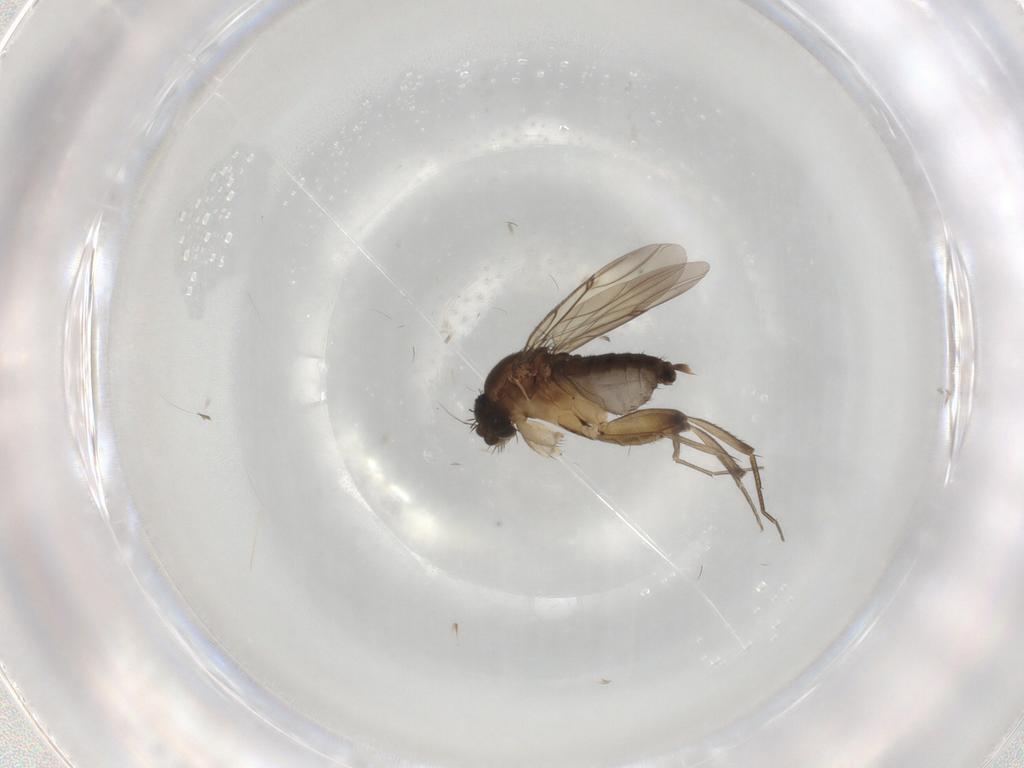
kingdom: Animalia
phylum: Arthropoda
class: Insecta
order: Diptera
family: Phoridae
